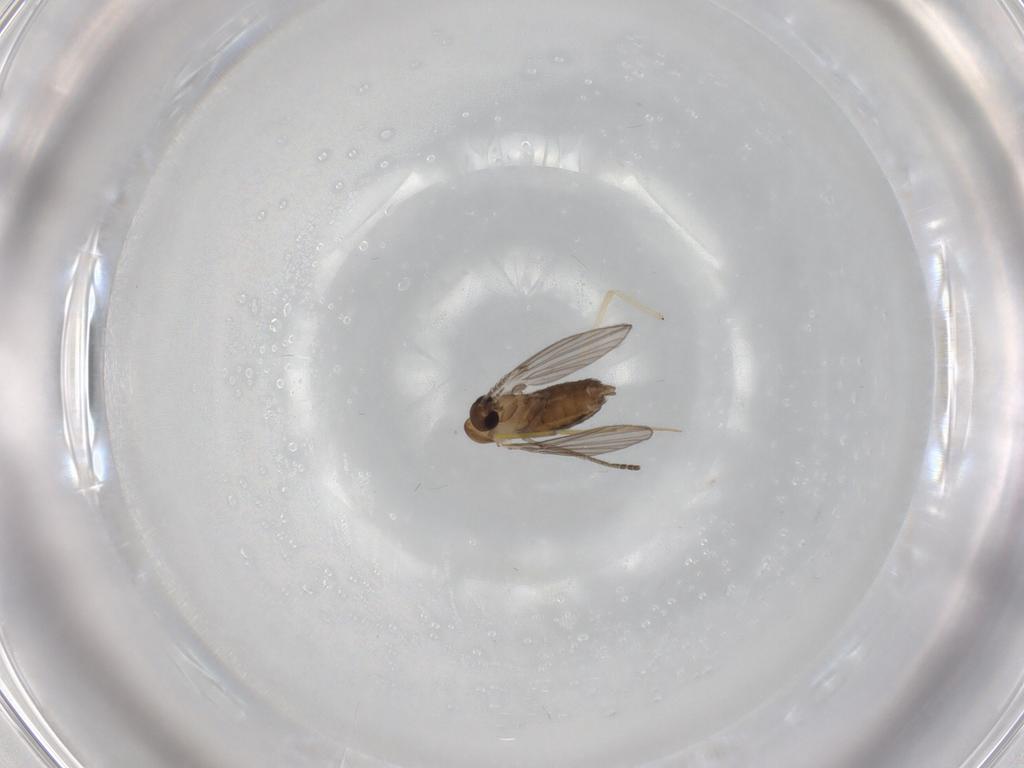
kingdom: Animalia
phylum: Arthropoda
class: Insecta
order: Diptera
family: Psychodidae
